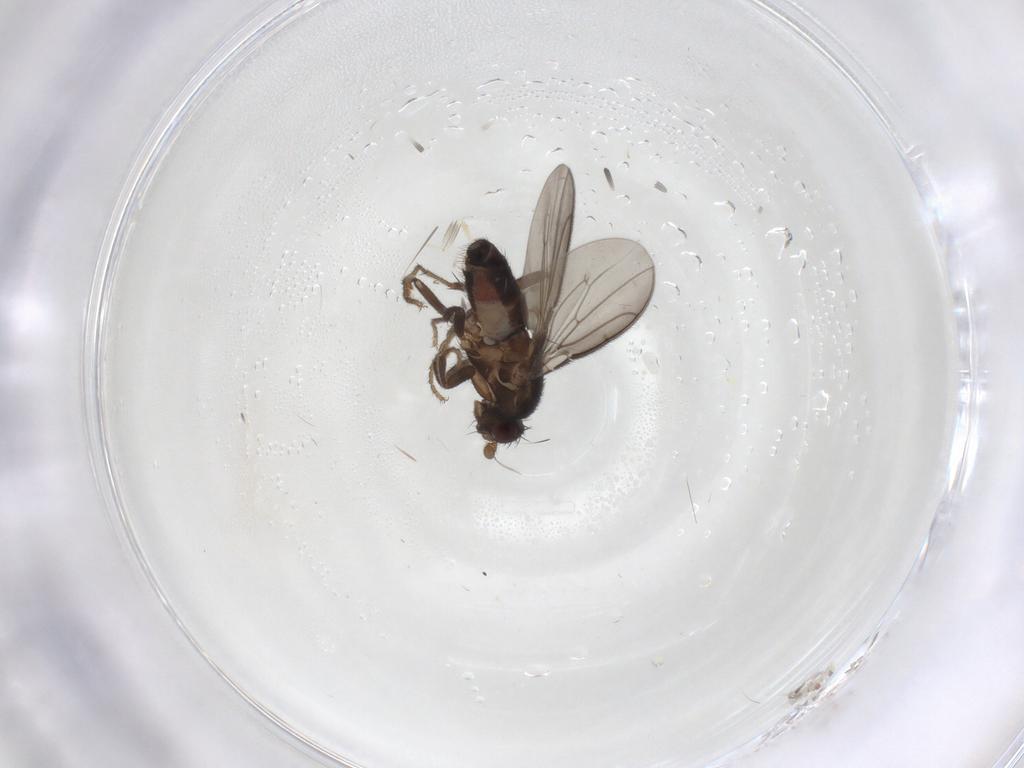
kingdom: Animalia
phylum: Arthropoda
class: Insecta
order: Diptera
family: Sphaeroceridae
